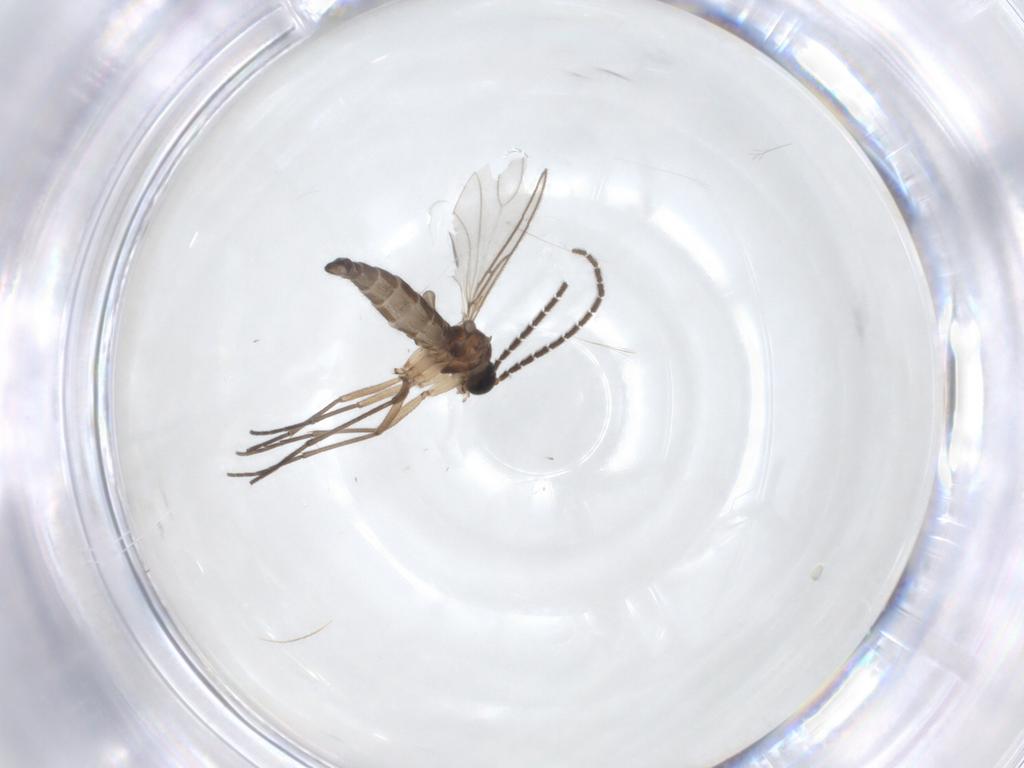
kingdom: Animalia
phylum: Arthropoda
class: Insecta
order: Diptera
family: Sciaridae
